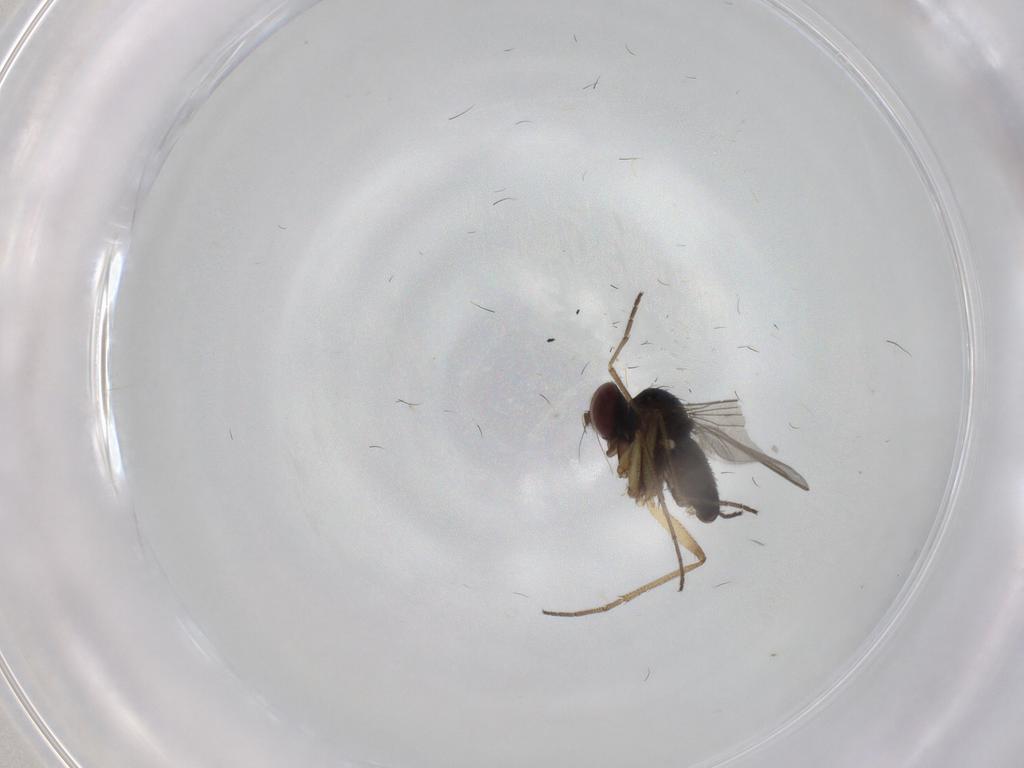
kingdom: Animalia
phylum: Arthropoda
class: Insecta
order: Diptera
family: Dolichopodidae
